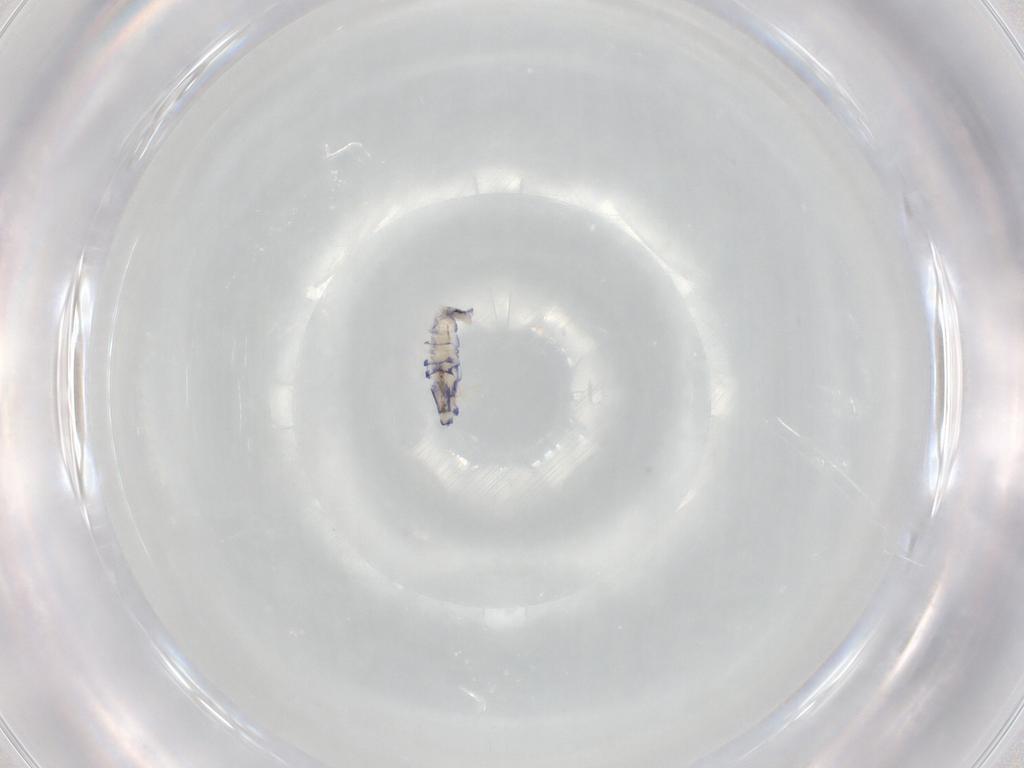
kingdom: Animalia
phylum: Arthropoda
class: Collembola
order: Entomobryomorpha
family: Entomobryidae
